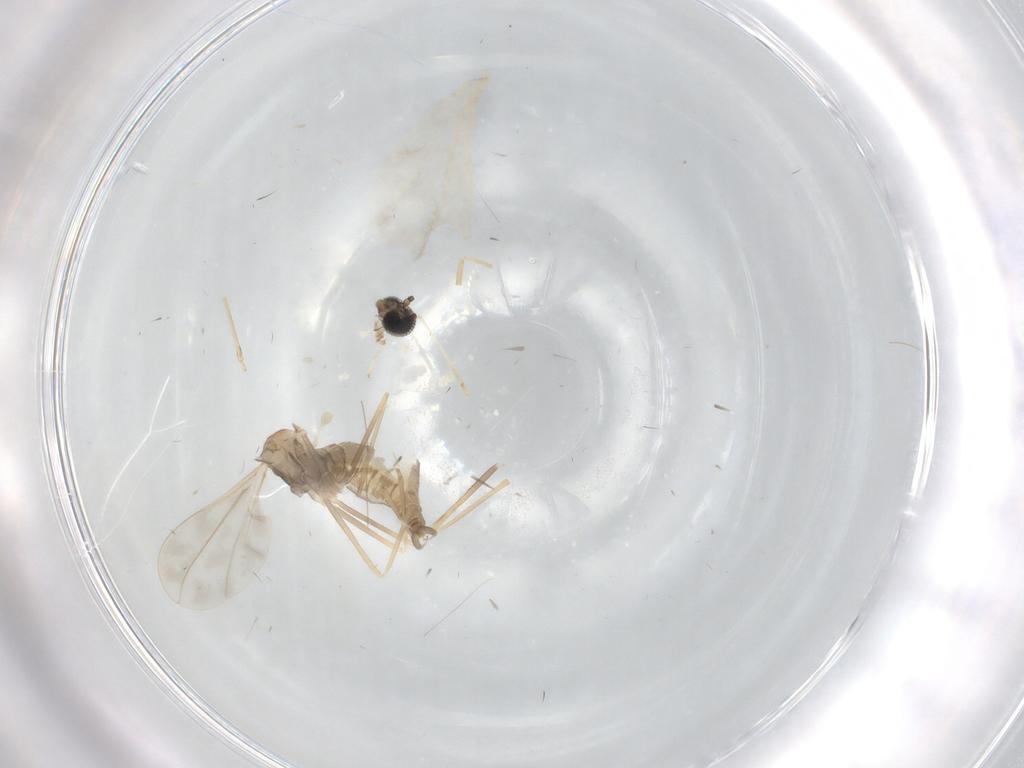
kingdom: Animalia
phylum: Arthropoda
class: Insecta
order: Diptera
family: Cecidomyiidae
